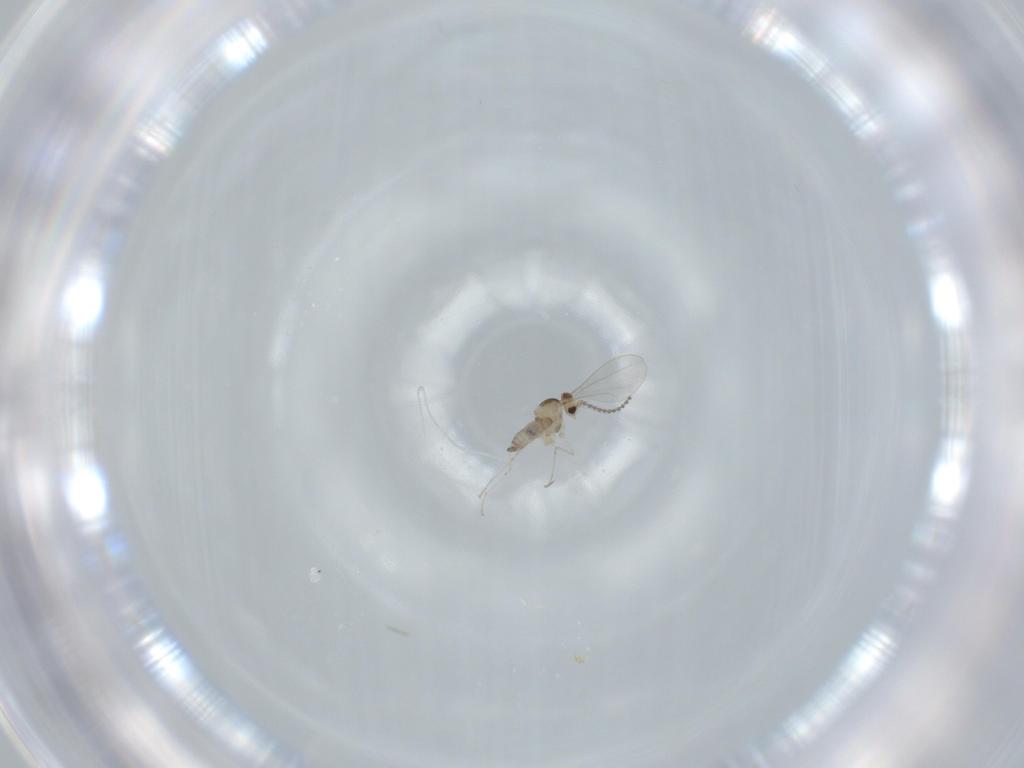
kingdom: Animalia
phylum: Arthropoda
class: Insecta
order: Diptera
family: Cecidomyiidae
